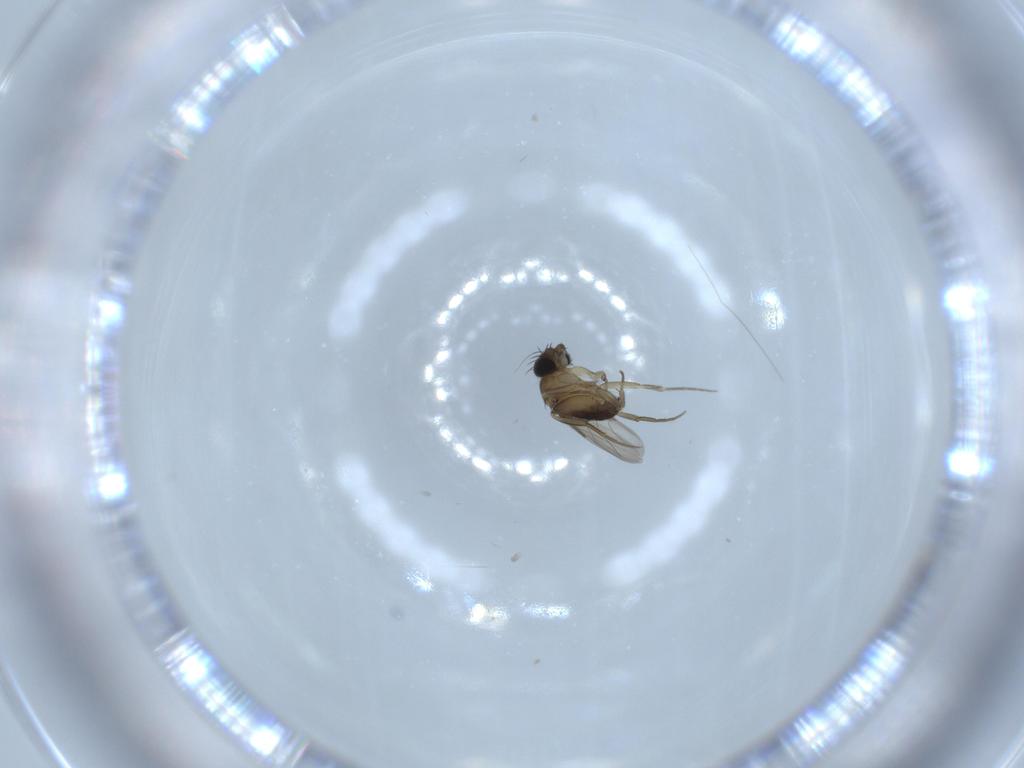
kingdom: Animalia
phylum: Arthropoda
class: Insecta
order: Diptera
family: Phoridae
